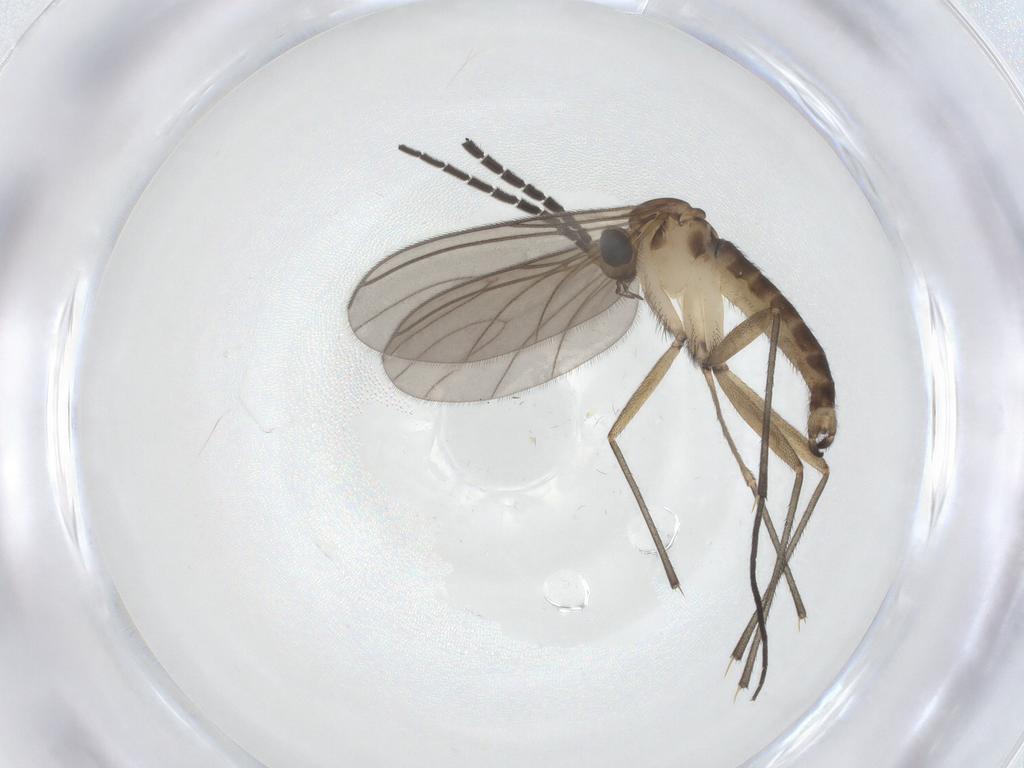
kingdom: Animalia
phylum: Arthropoda
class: Insecta
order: Diptera
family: Sciaridae
